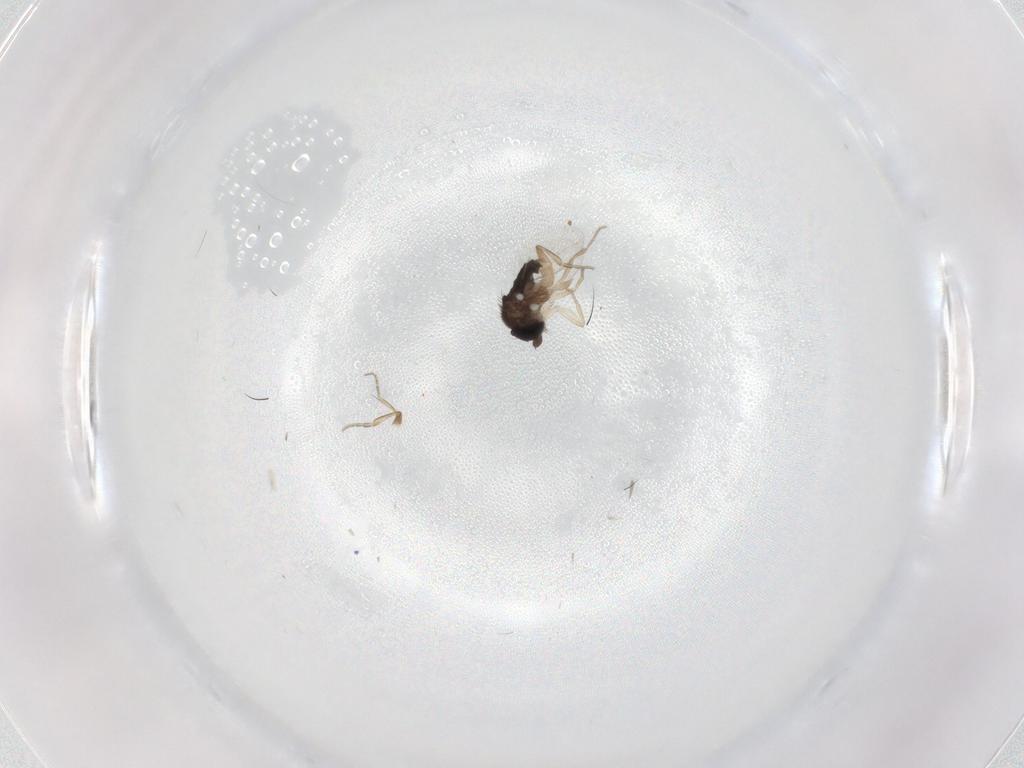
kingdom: Animalia
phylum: Arthropoda
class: Insecta
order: Diptera
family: Phoridae
